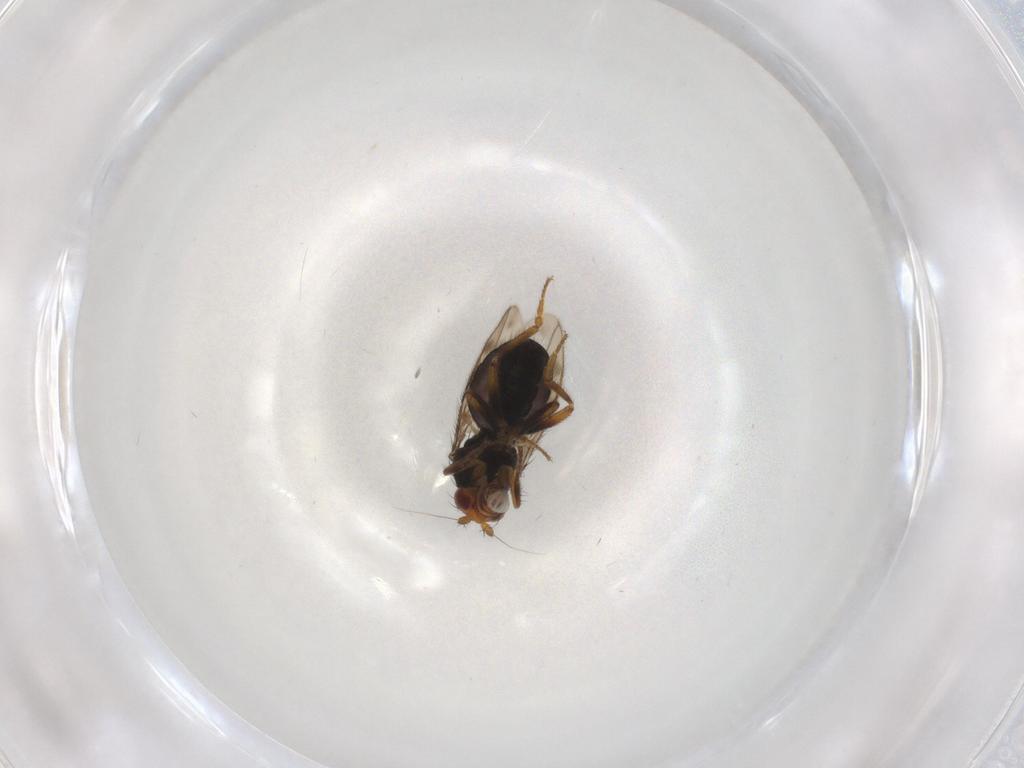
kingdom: Animalia
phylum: Arthropoda
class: Insecta
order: Diptera
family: Sphaeroceridae
